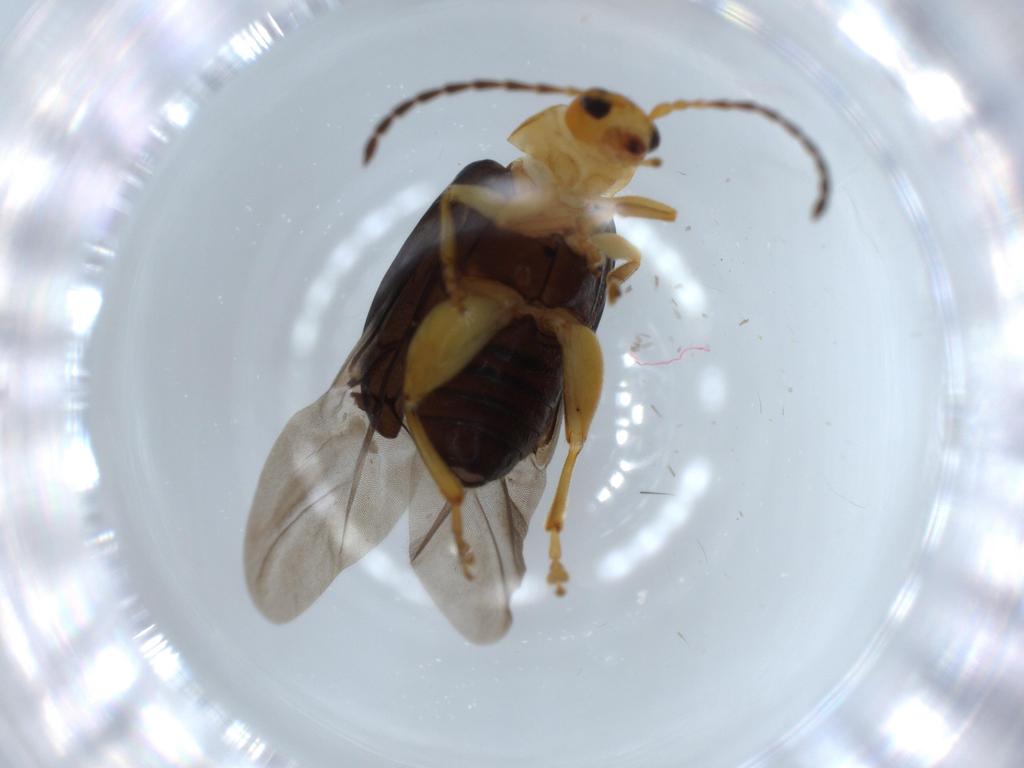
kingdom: Animalia
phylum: Arthropoda
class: Insecta
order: Coleoptera
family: Chrysomelidae
